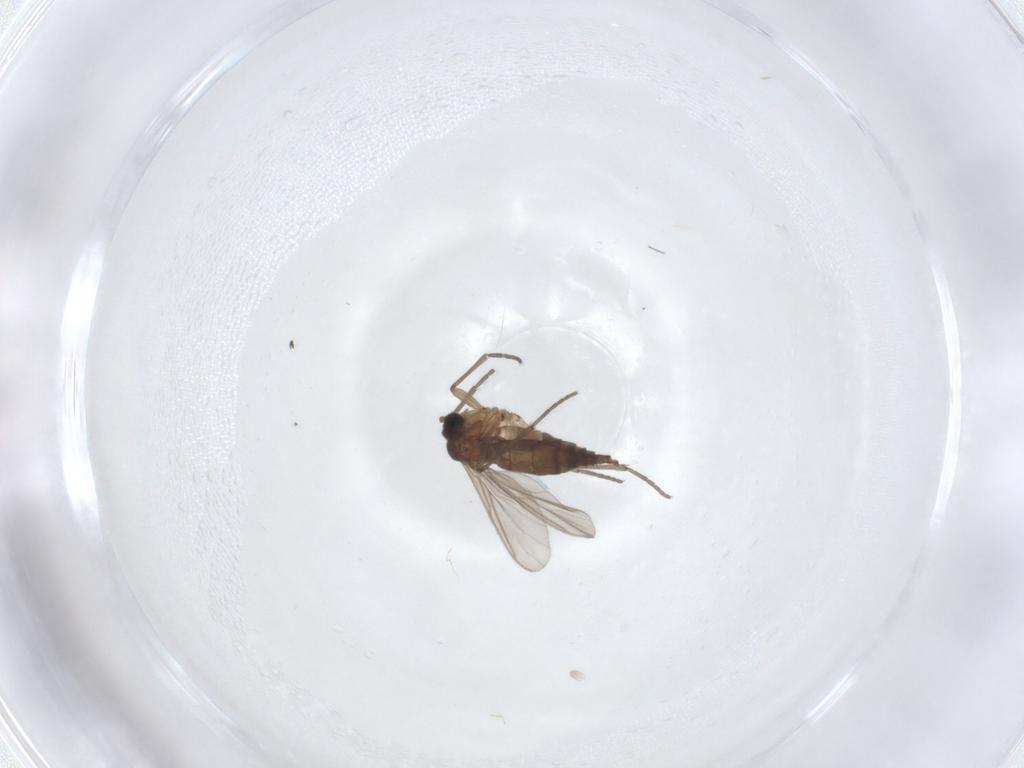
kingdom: Animalia
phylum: Arthropoda
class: Insecta
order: Diptera
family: Sciaridae
